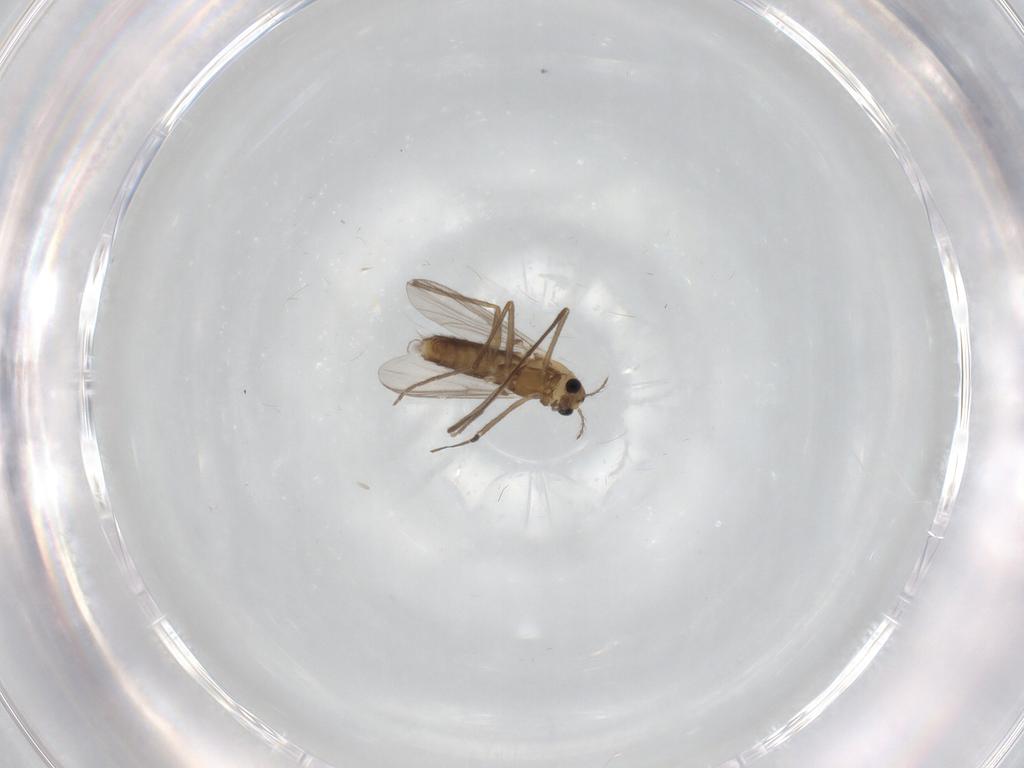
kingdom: Animalia
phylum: Arthropoda
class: Insecta
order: Diptera
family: Chironomidae
